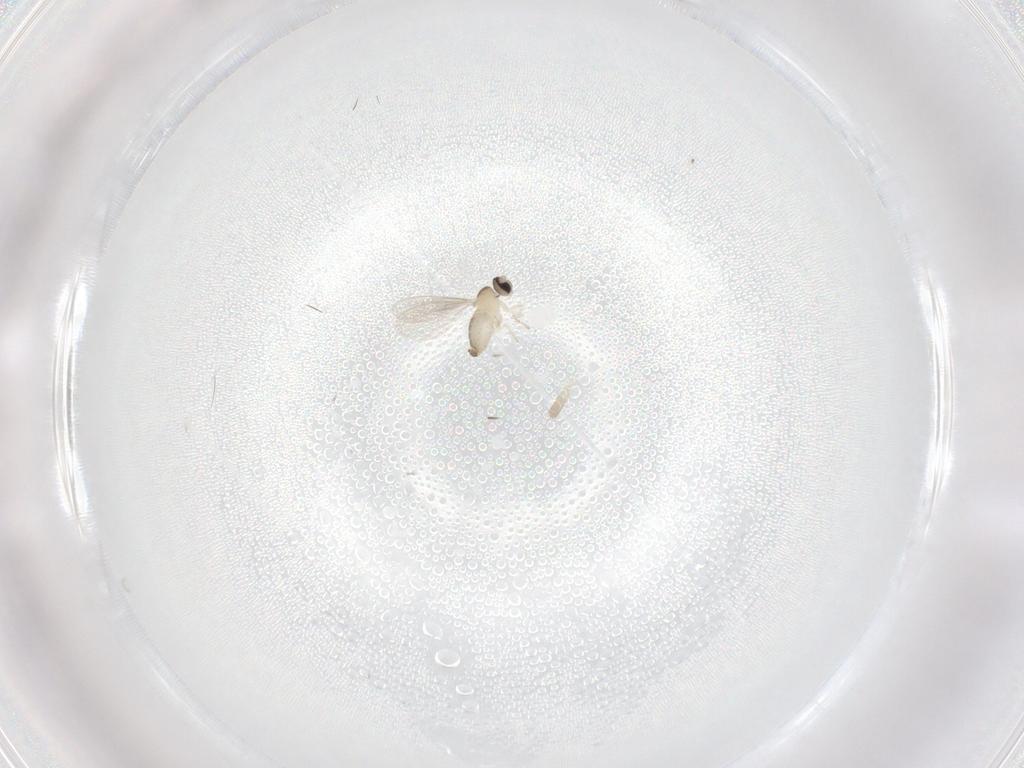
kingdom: Animalia
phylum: Arthropoda
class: Insecta
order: Diptera
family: Cecidomyiidae
